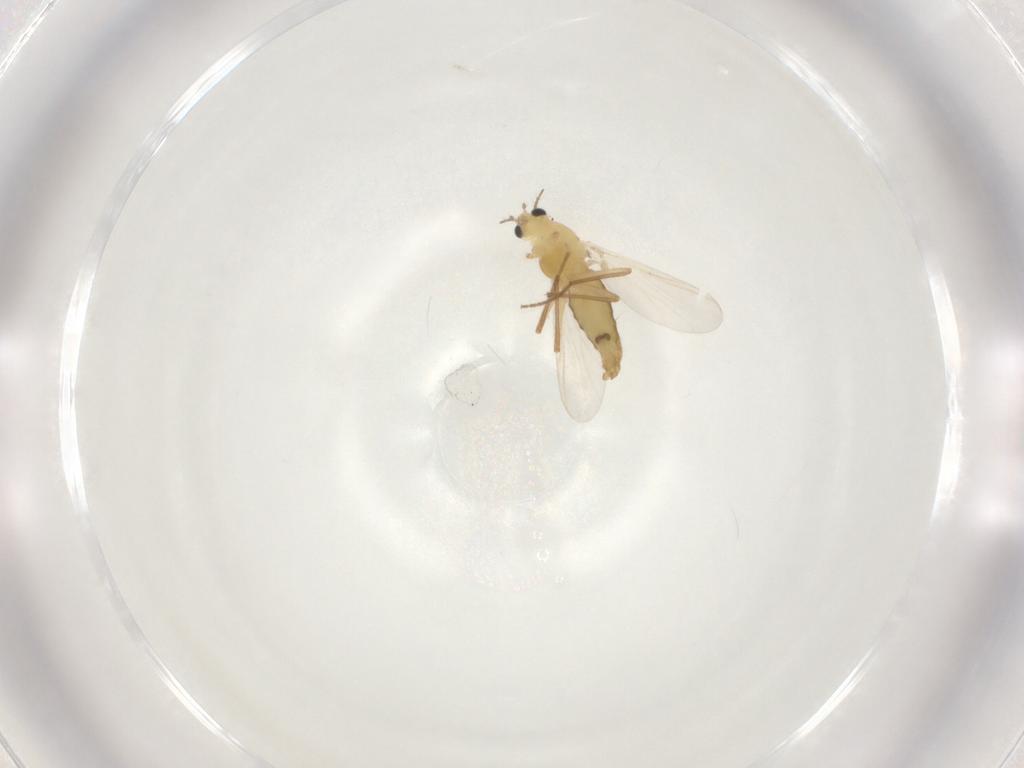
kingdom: Animalia
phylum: Arthropoda
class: Insecta
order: Diptera
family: Chironomidae
